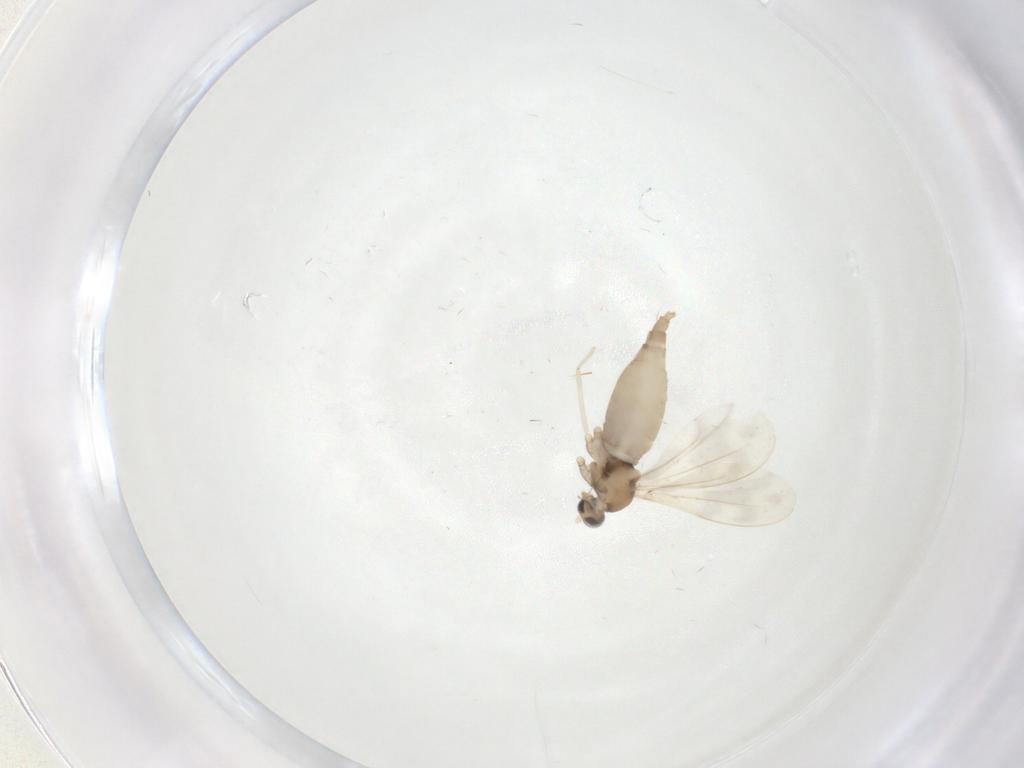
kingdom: Animalia
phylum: Arthropoda
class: Insecta
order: Diptera
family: Cecidomyiidae
